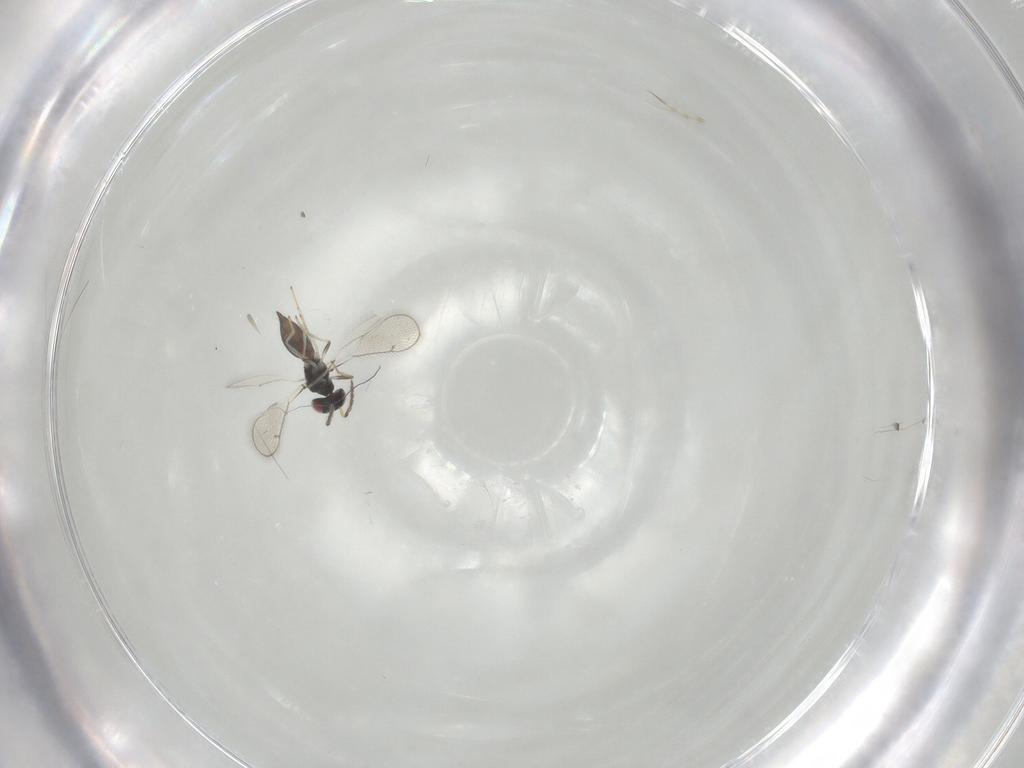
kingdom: Animalia
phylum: Arthropoda
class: Insecta
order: Hymenoptera
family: Eulophidae
